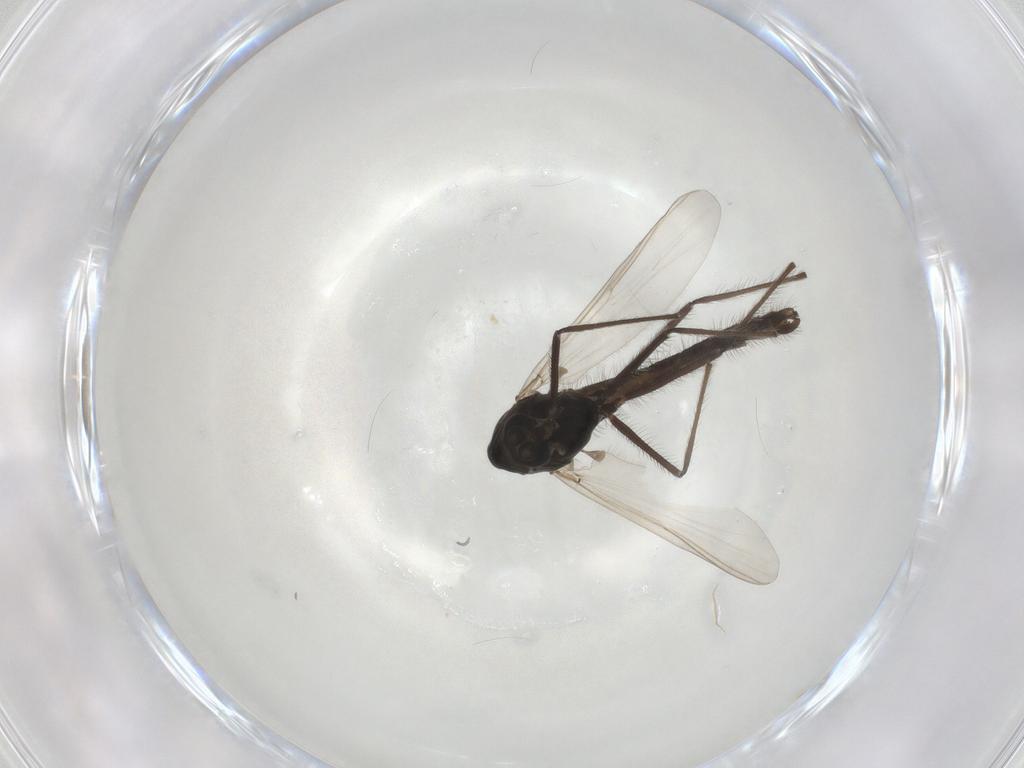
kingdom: Animalia
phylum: Arthropoda
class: Insecta
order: Diptera
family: Chironomidae
